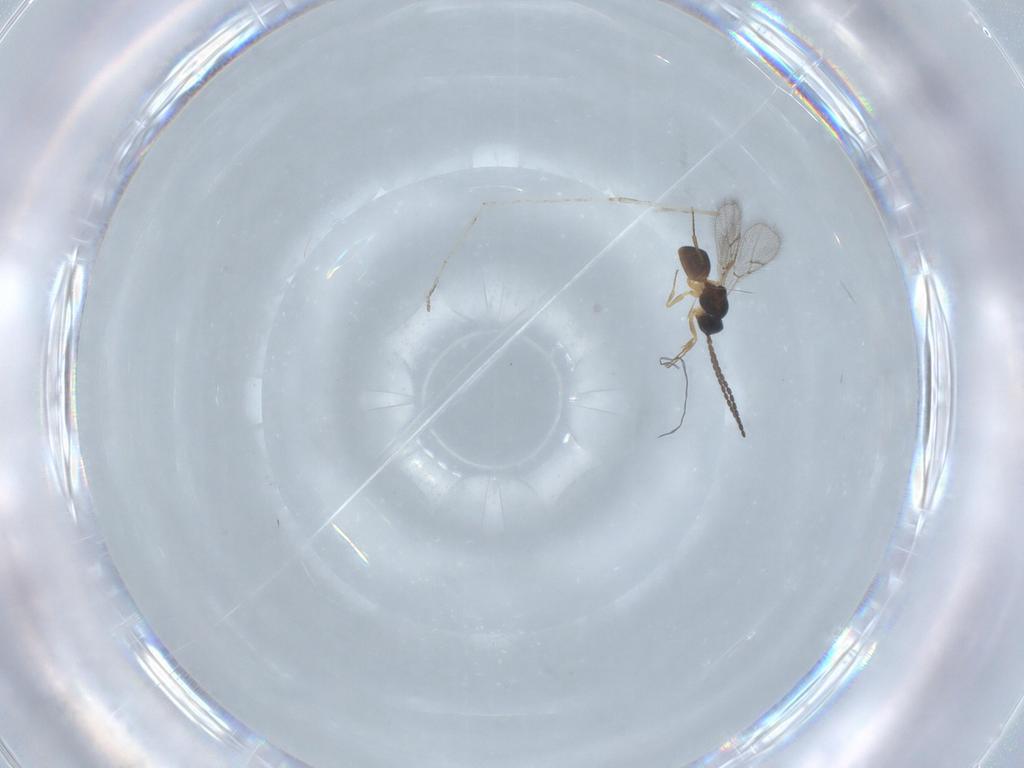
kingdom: Animalia
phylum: Arthropoda
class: Insecta
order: Hymenoptera
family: Figitidae
